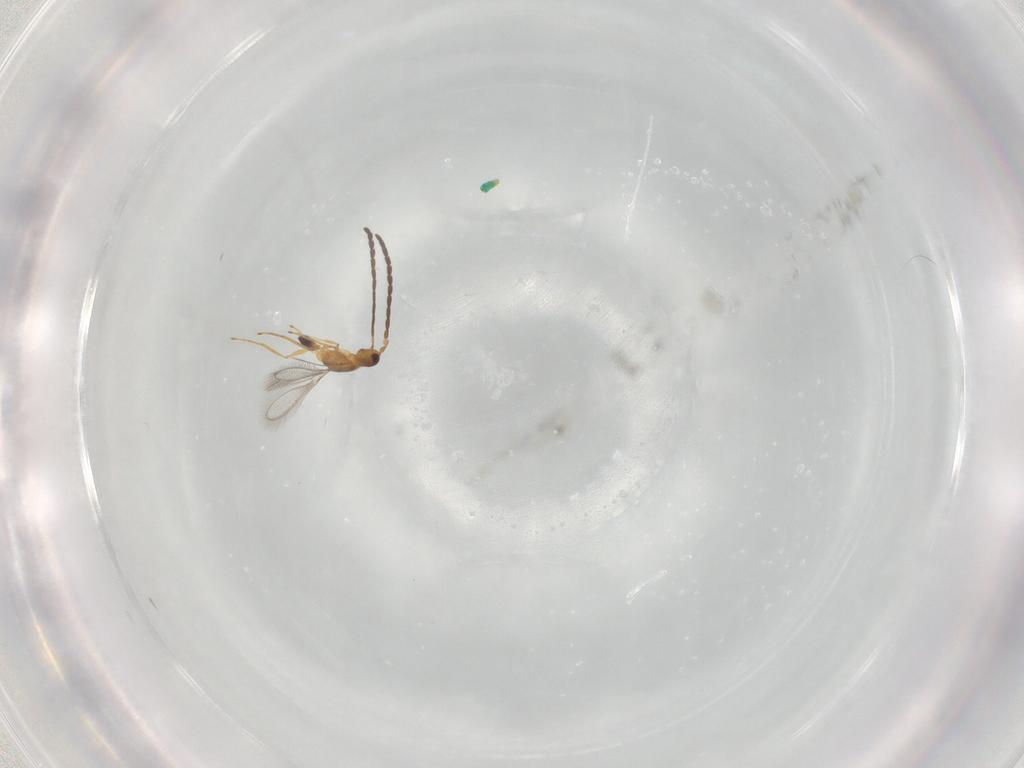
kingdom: Animalia
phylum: Arthropoda
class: Insecta
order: Hymenoptera
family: Mymaridae
